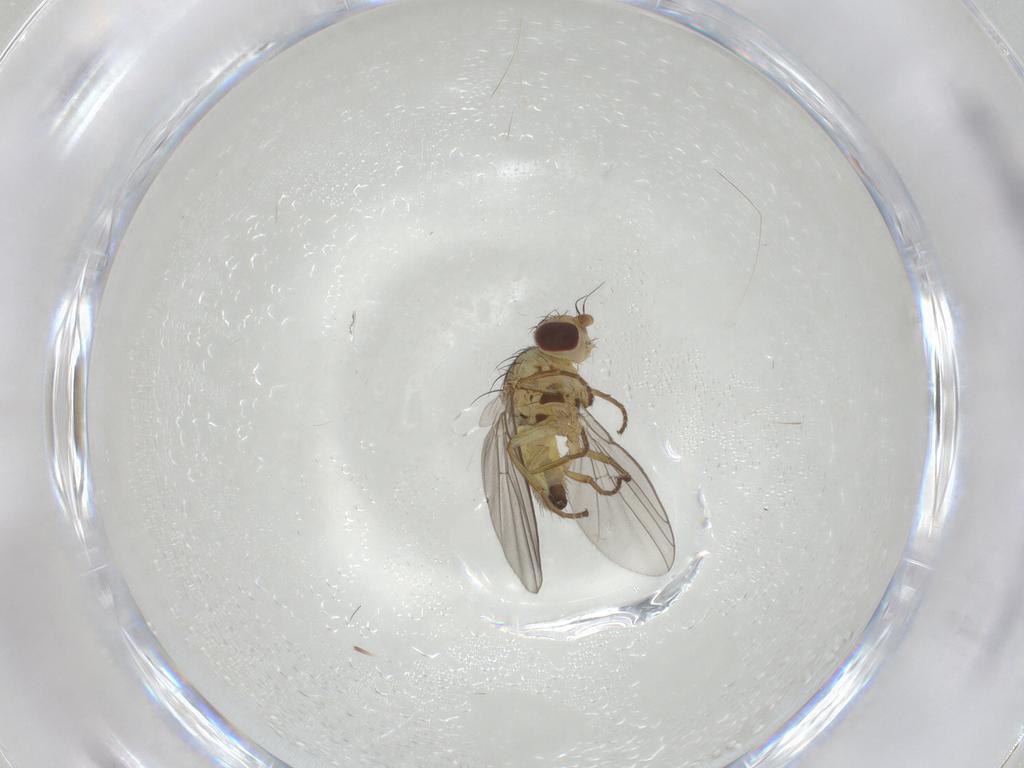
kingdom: Animalia
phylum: Arthropoda
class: Insecta
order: Diptera
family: Agromyzidae
